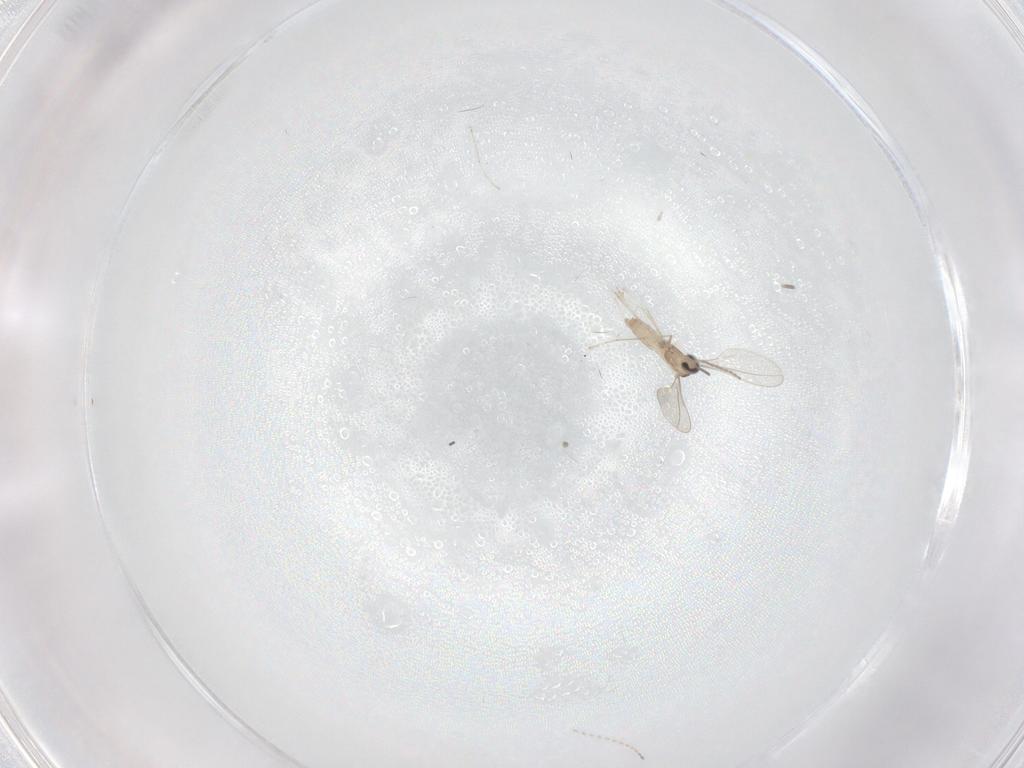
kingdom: Animalia
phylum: Arthropoda
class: Insecta
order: Diptera
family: Cecidomyiidae
